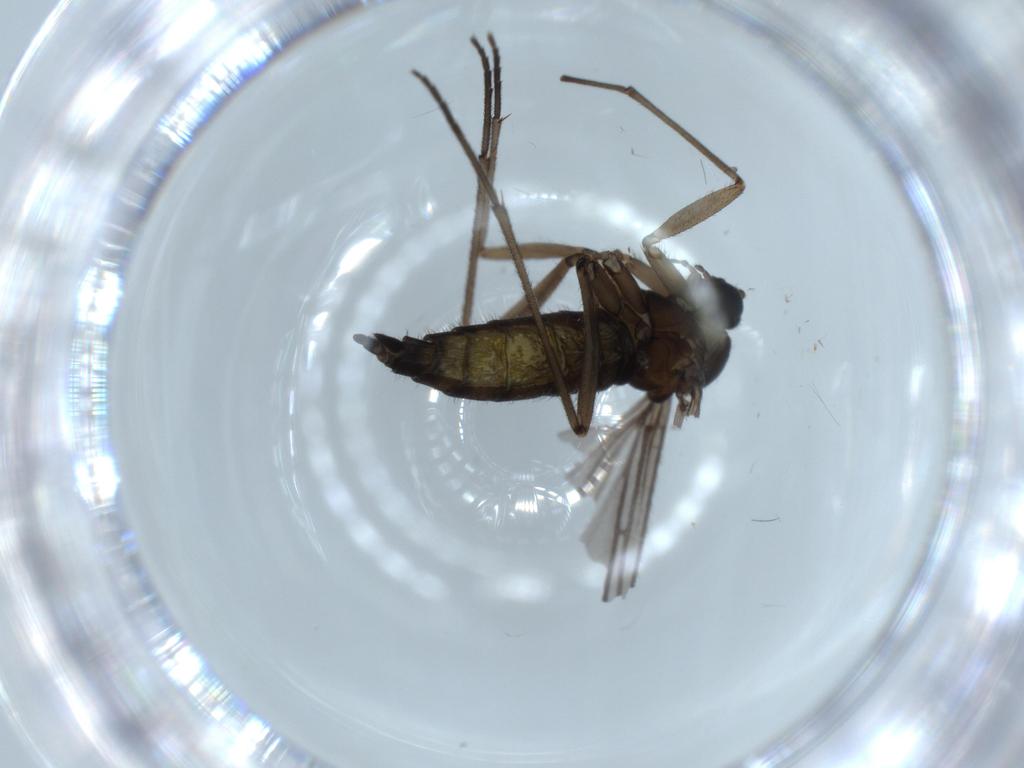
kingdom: Animalia
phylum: Arthropoda
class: Insecta
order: Diptera
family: Sciaridae
